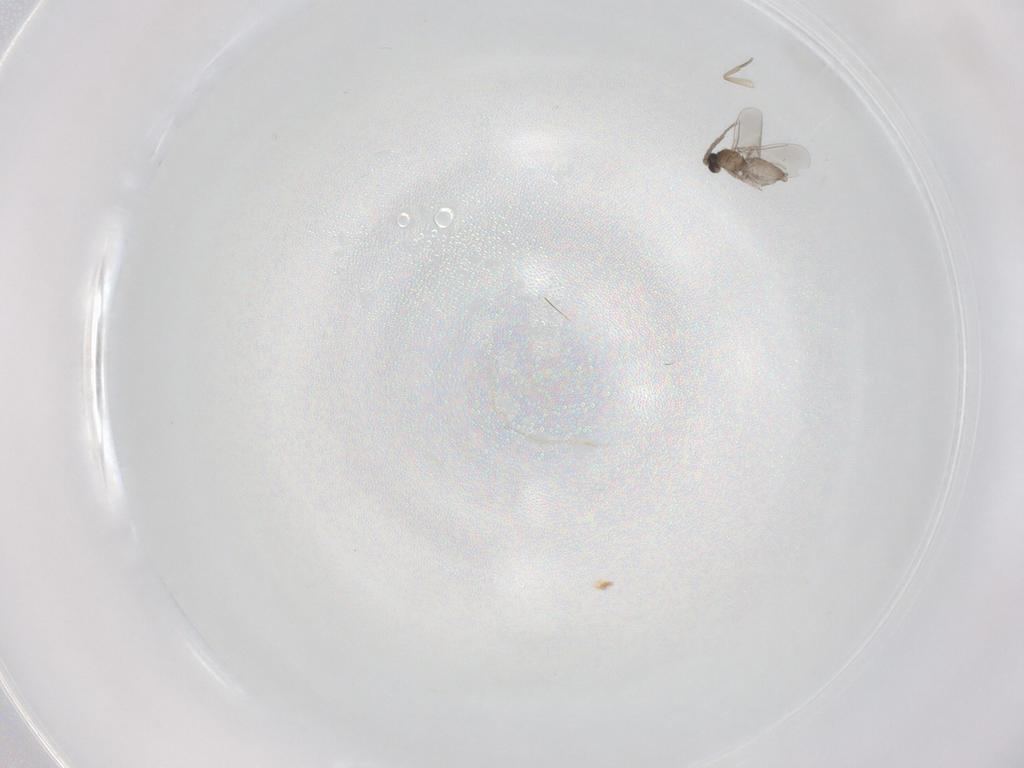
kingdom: Animalia
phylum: Arthropoda
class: Insecta
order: Diptera
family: Phoridae
